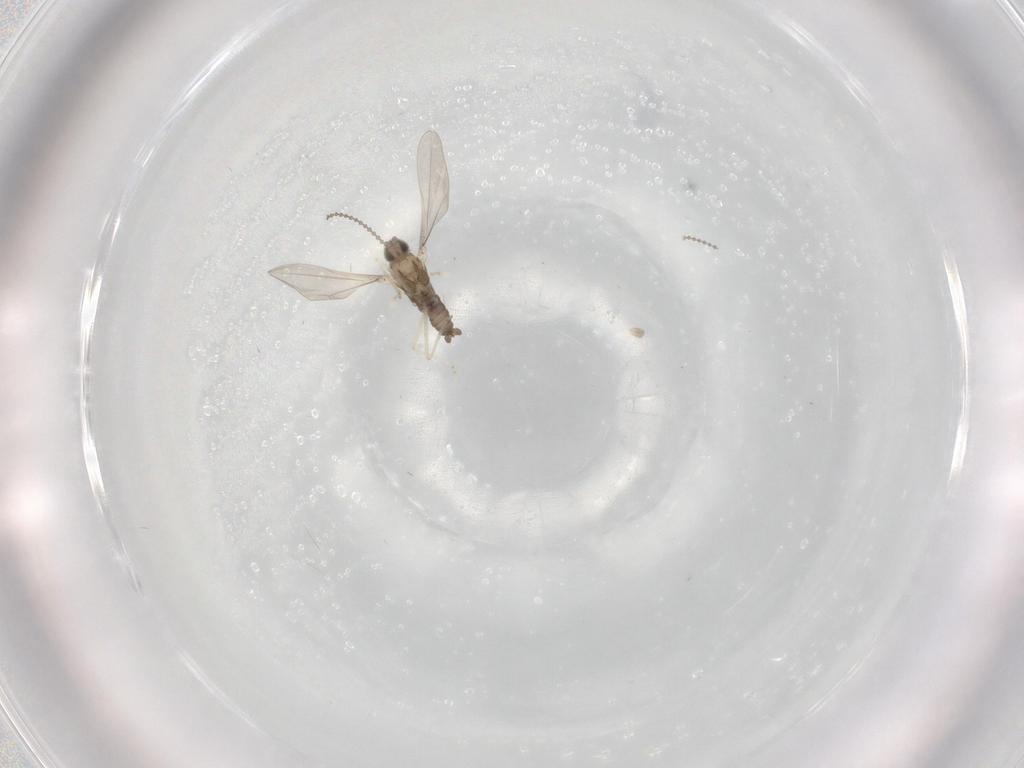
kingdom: Animalia
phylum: Arthropoda
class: Insecta
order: Diptera
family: Cecidomyiidae
